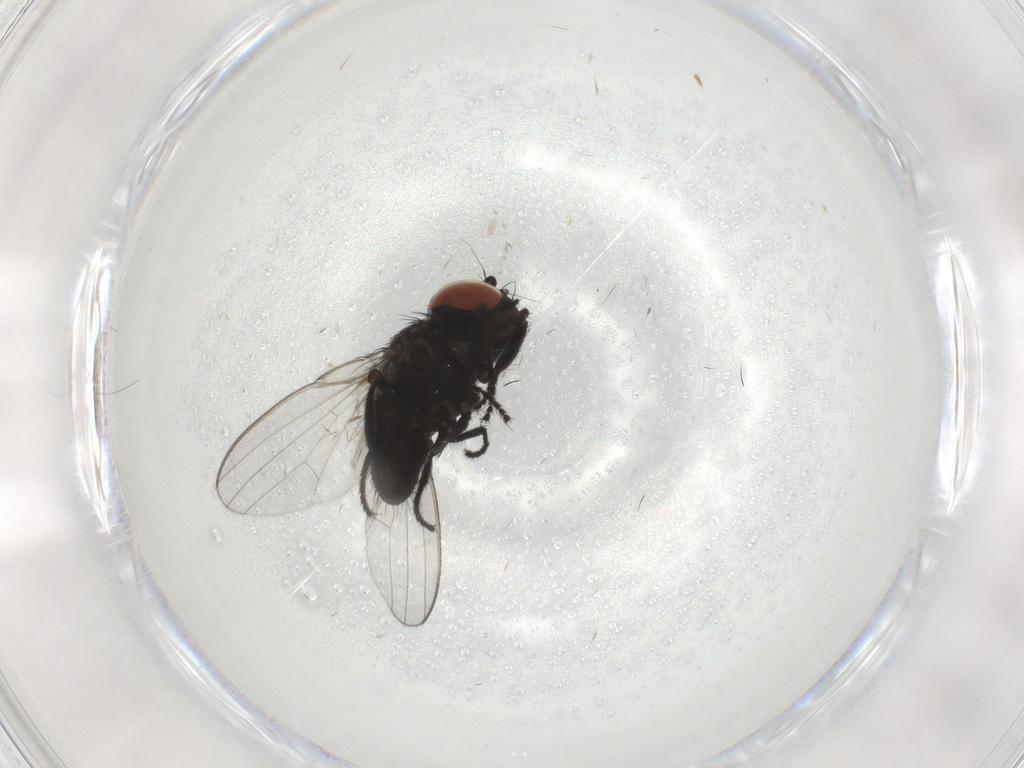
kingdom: Animalia
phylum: Arthropoda
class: Insecta
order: Diptera
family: Milichiidae
